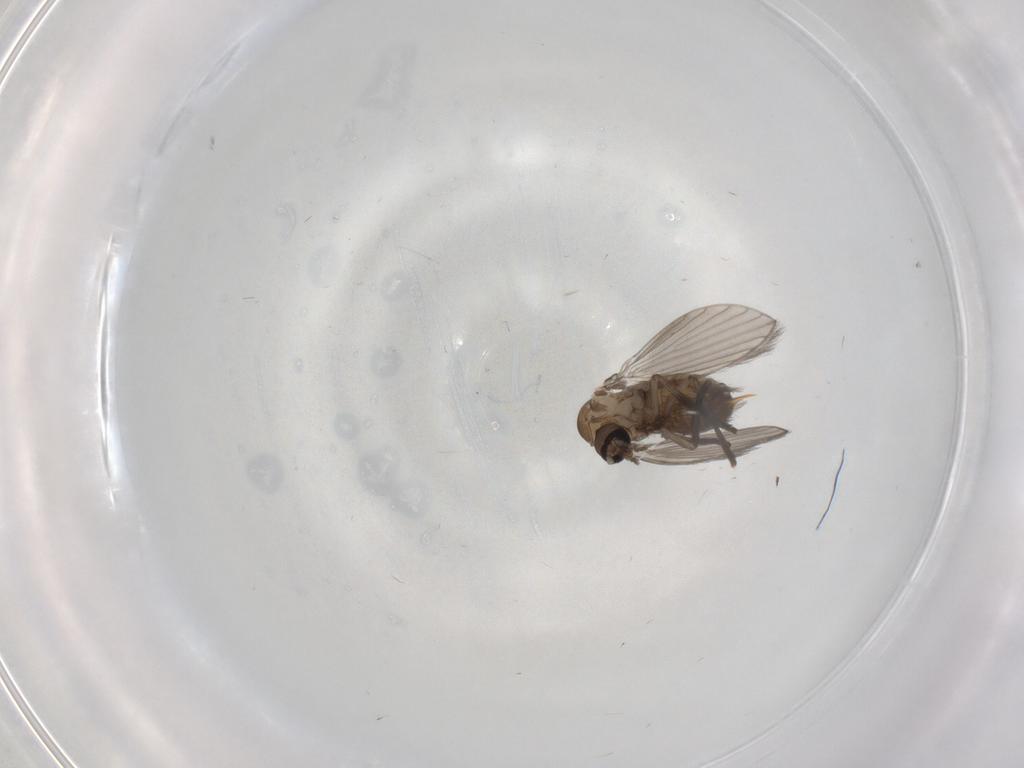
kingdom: Animalia
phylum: Arthropoda
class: Insecta
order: Diptera
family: Psychodidae
